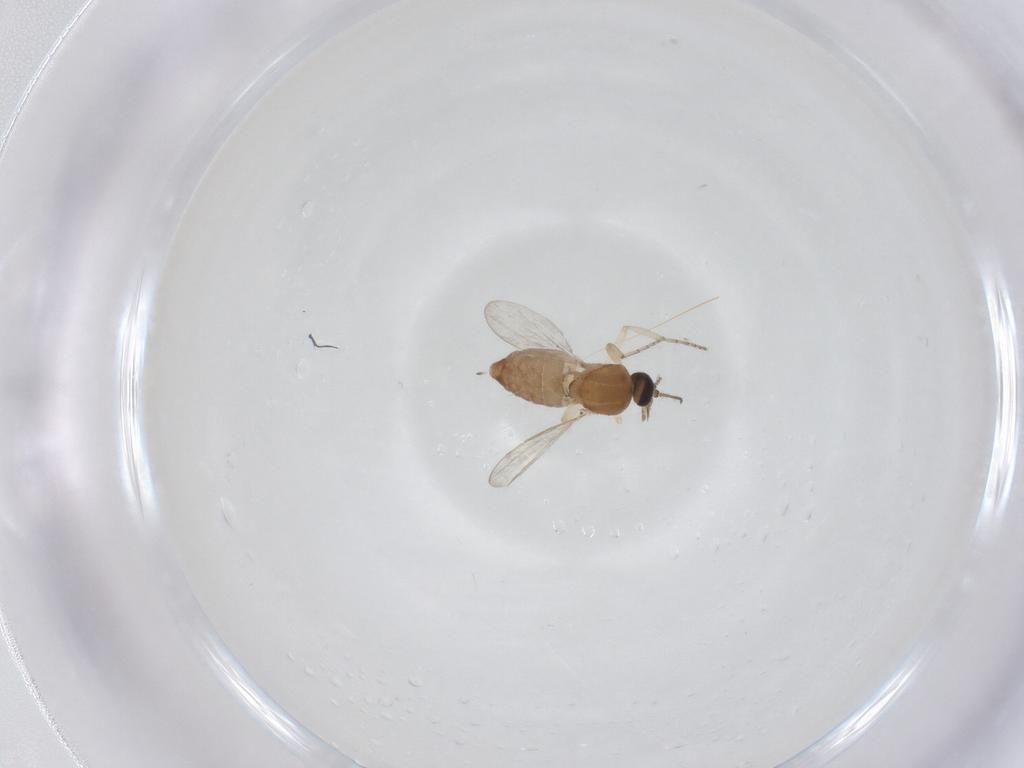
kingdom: Animalia
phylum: Arthropoda
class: Insecta
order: Diptera
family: Ceratopogonidae
